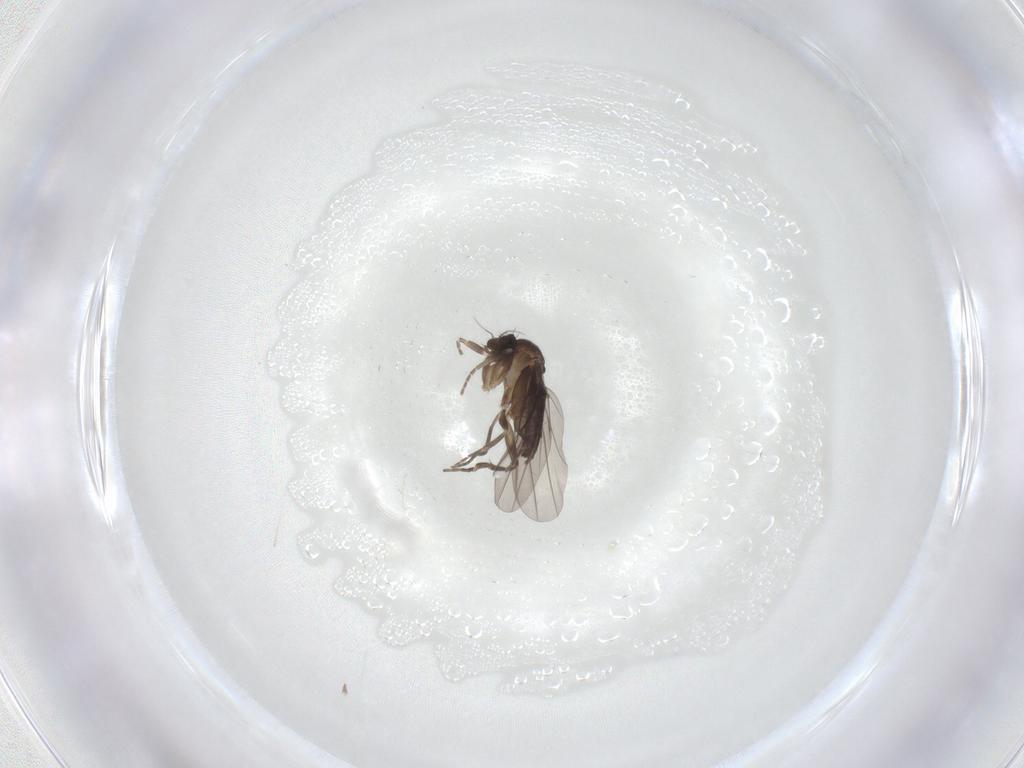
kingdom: Animalia
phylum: Arthropoda
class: Insecta
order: Diptera
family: Phoridae
